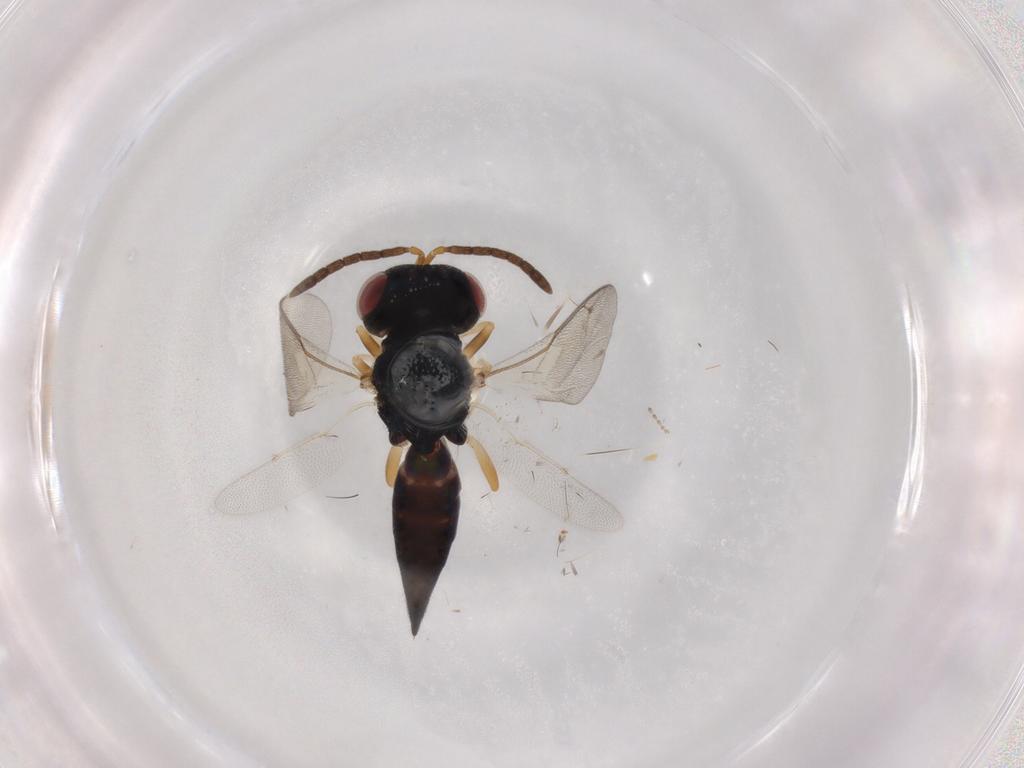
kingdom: Animalia
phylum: Arthropoda
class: Insecta
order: Hymenoptera
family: Pteromalidae
